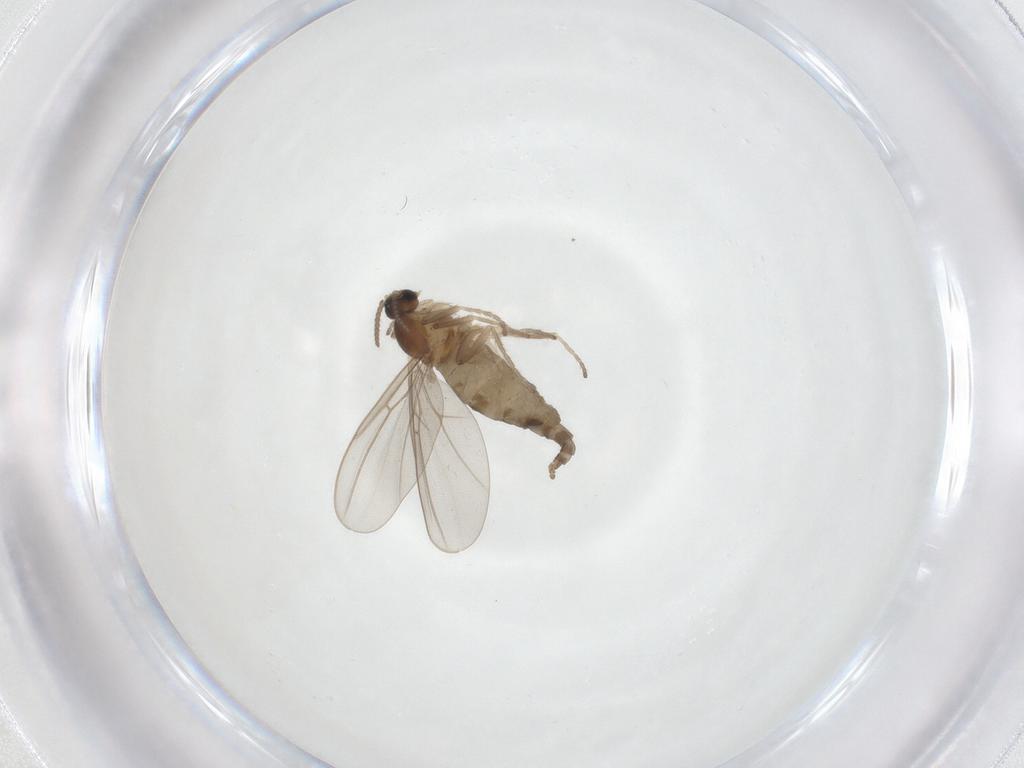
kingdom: Animalia
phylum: Arthropoda
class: Insecta
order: Diptera
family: Cecidomyiidae
